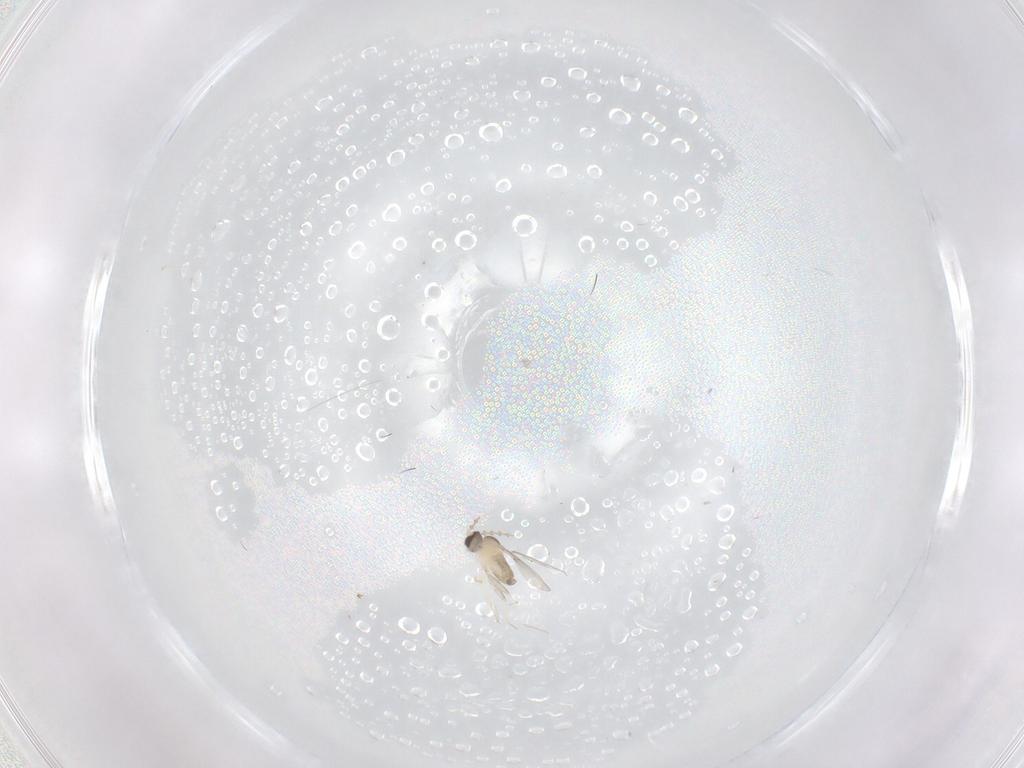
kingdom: Animalia
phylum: Arthropoda
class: Insecta
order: Diptera
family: Cecidomyiidae
